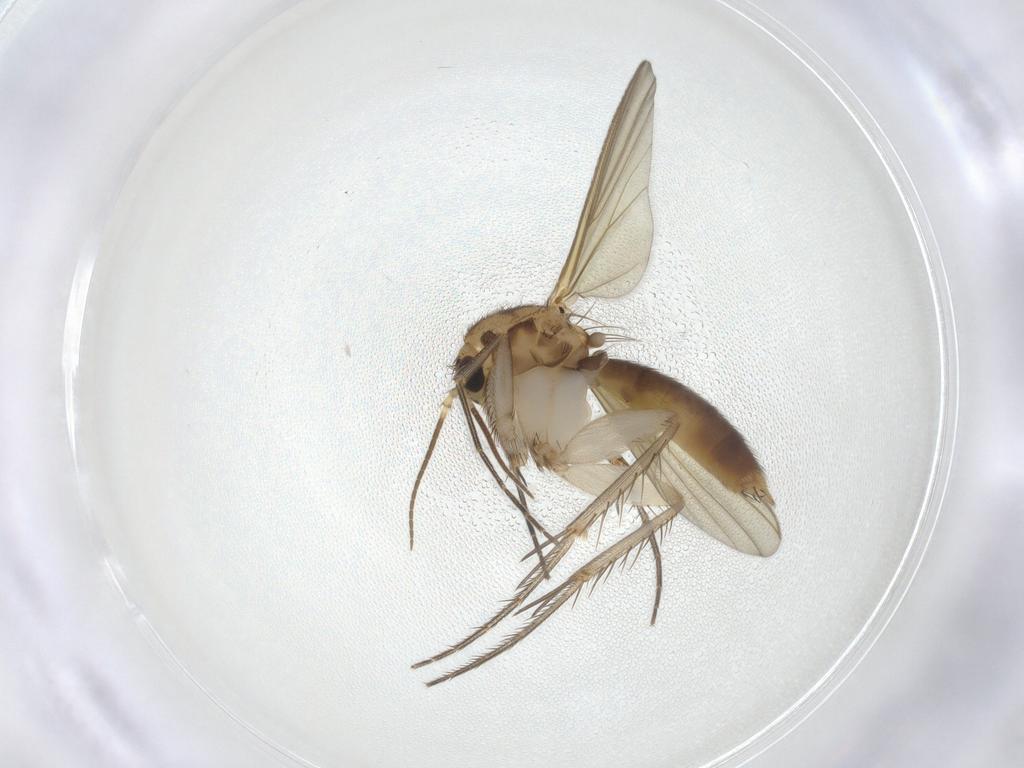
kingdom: Animalia
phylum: Arthropoda
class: Insecta
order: Diptera
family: Mycetophilidae
